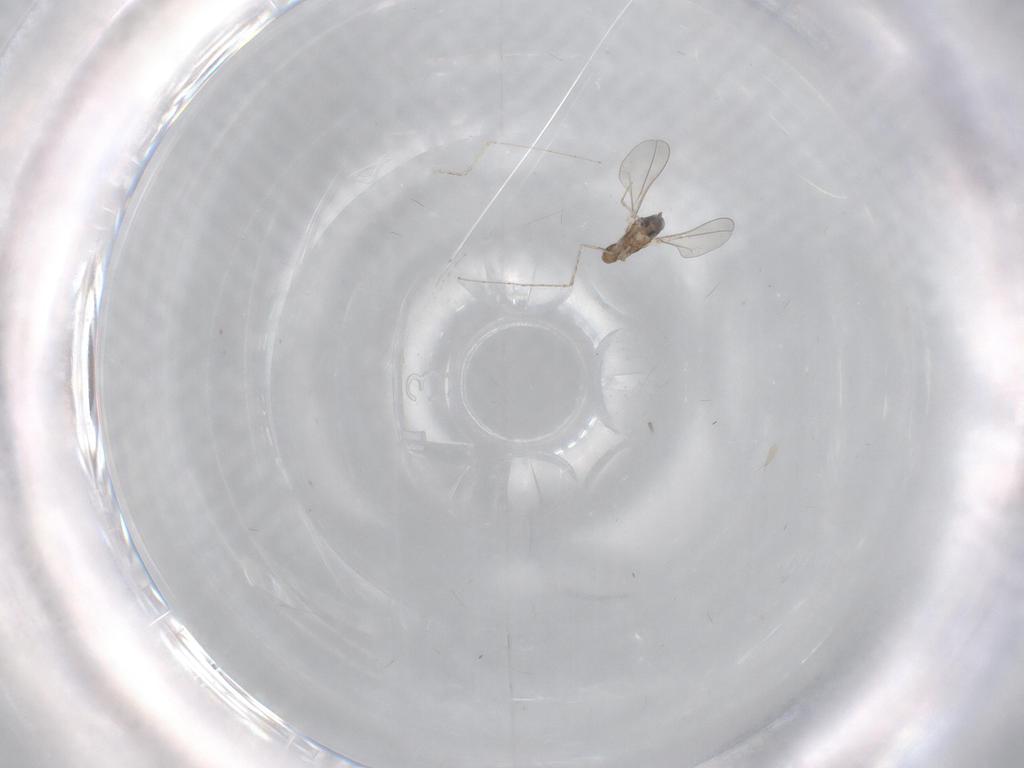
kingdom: Animalia
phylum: Arthropoda
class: Insecta
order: Diptera
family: Cecidomyiidae
